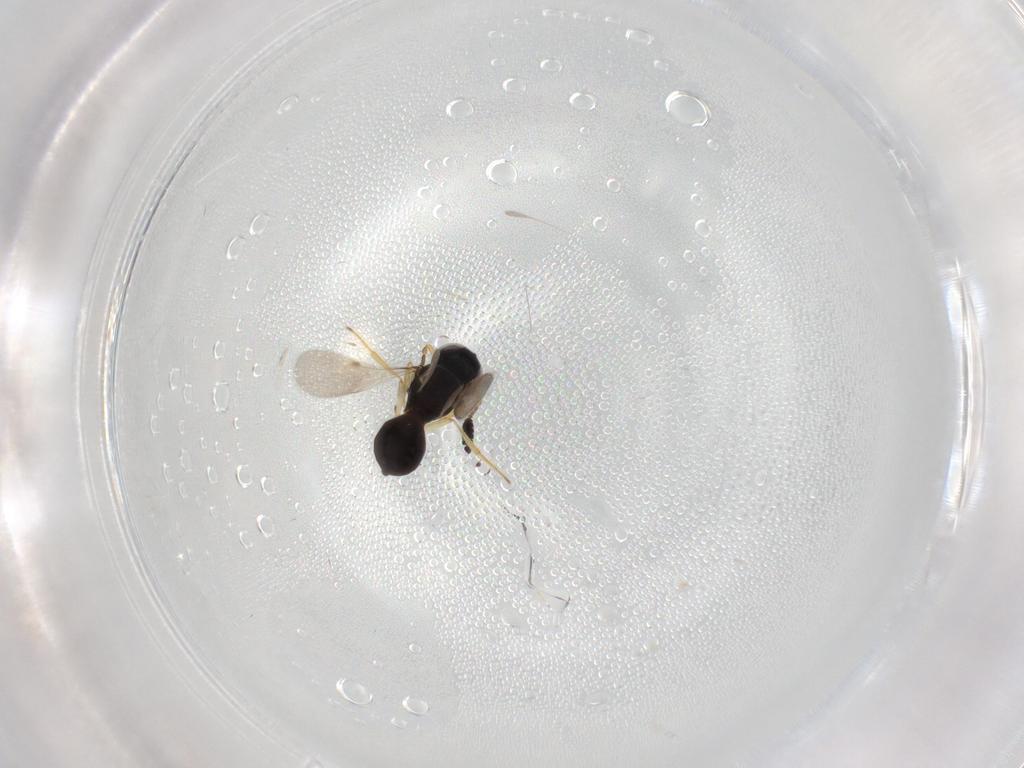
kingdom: Animalia
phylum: Arthropoda
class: Insecta
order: Hymenoptera
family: Scelionidae
